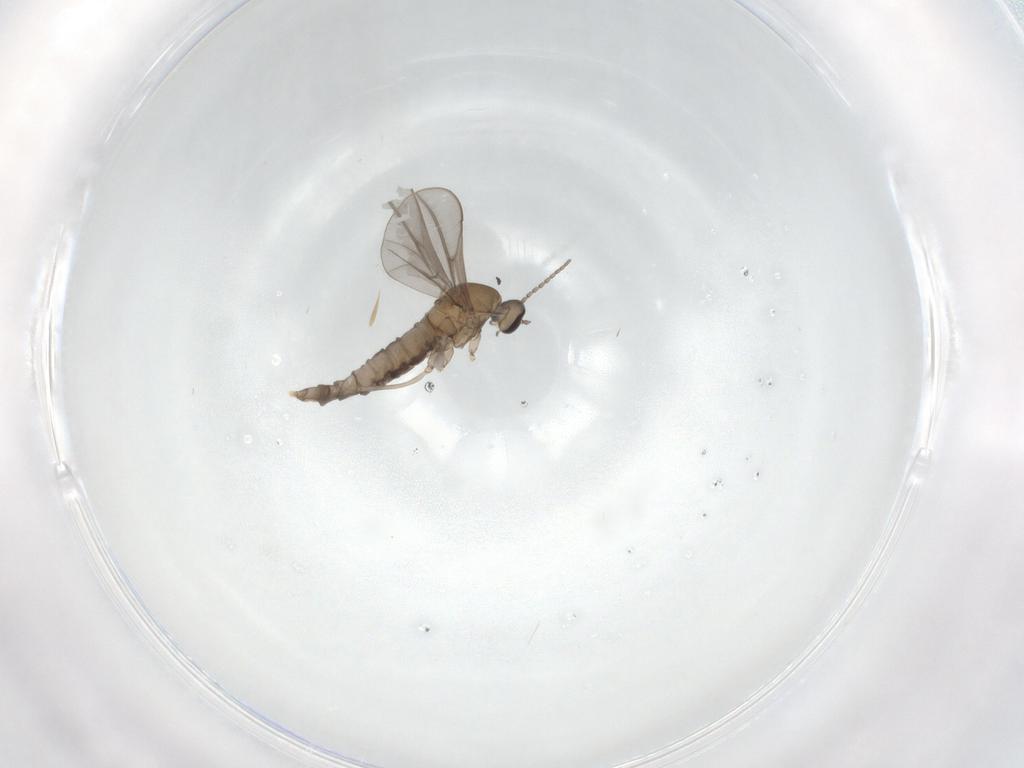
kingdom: Animalia
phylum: Arthropoda
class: Insecta
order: Diptera
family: Cecidomyiidae
